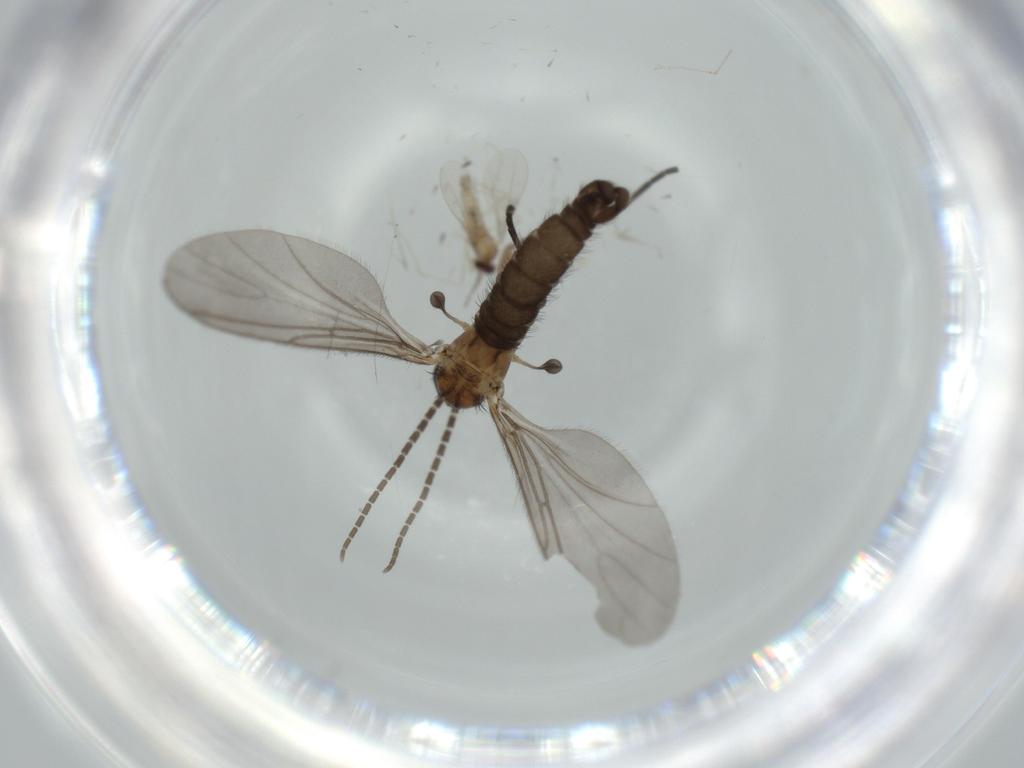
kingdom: Animalia
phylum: Arthropoda
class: Insecta
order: Diptera
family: Sciaridae
